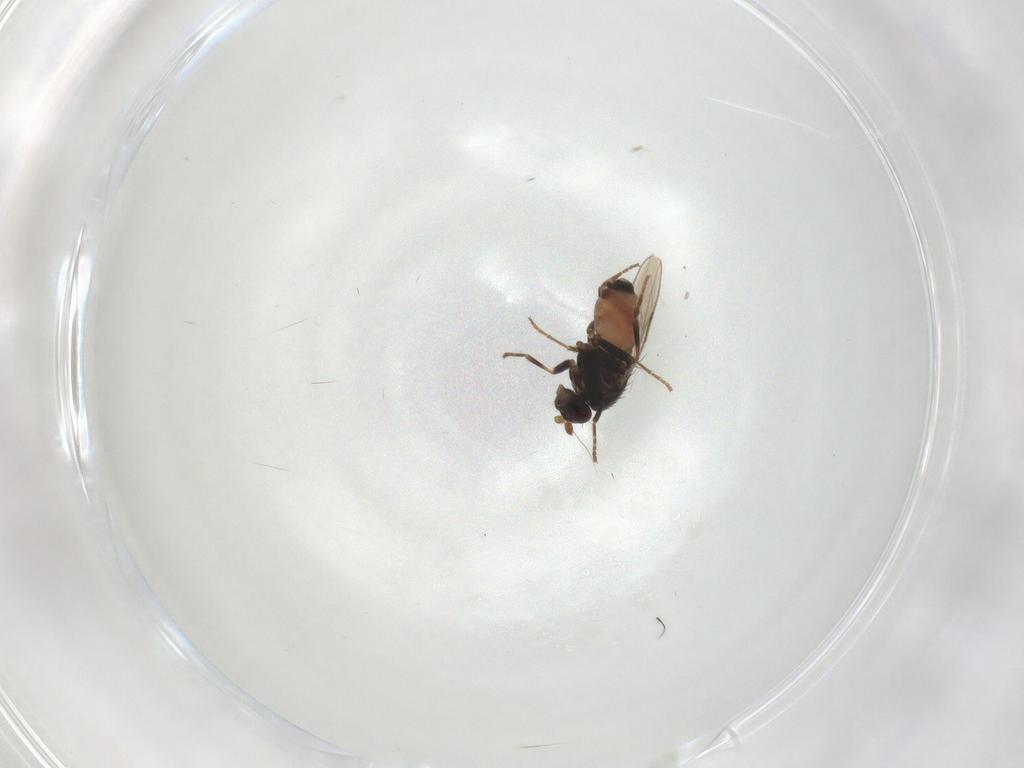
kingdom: Animalia
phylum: Arthropoda
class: Insecta
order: Diptera
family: Sphaeroceridae
